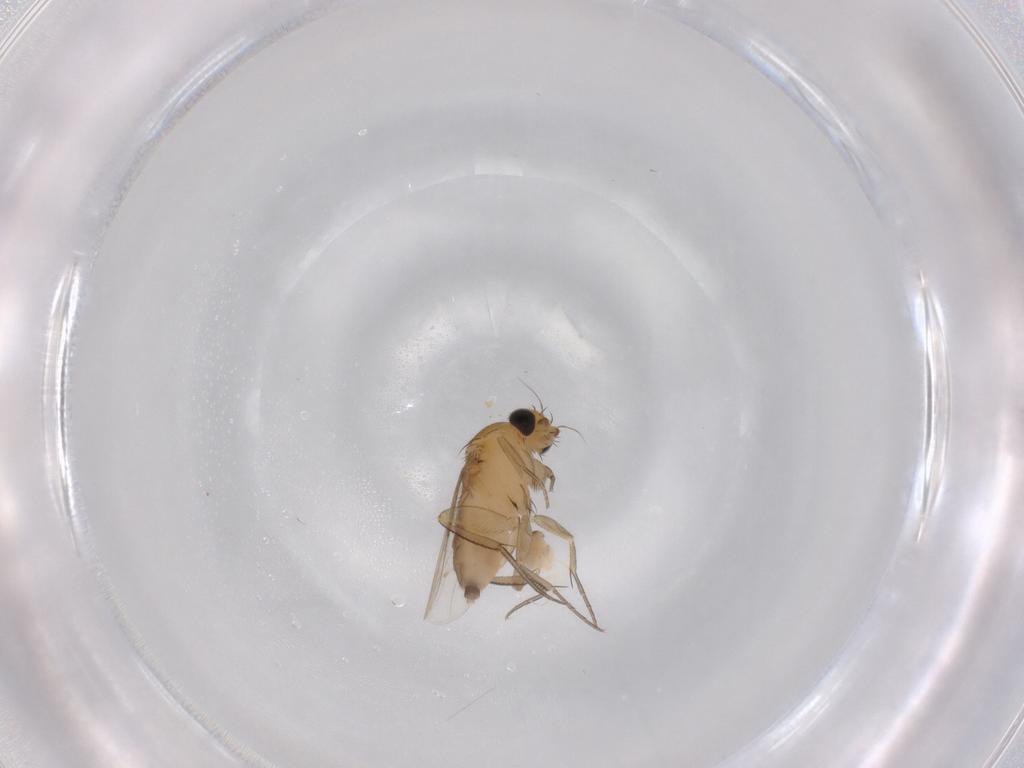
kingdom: Animalia
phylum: Arthropoda
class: Insecta
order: Diptera
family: Cecidomyiidae
